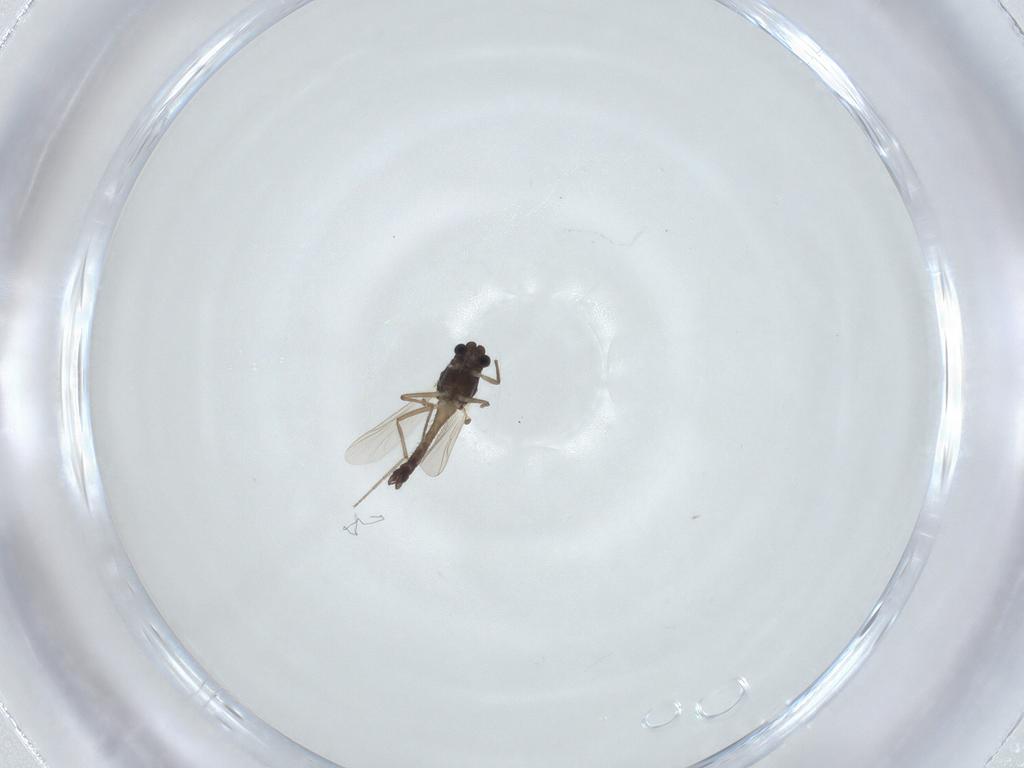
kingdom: Animalia
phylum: Arthropoda
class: Insecta
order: Diptera
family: Chironomidae
